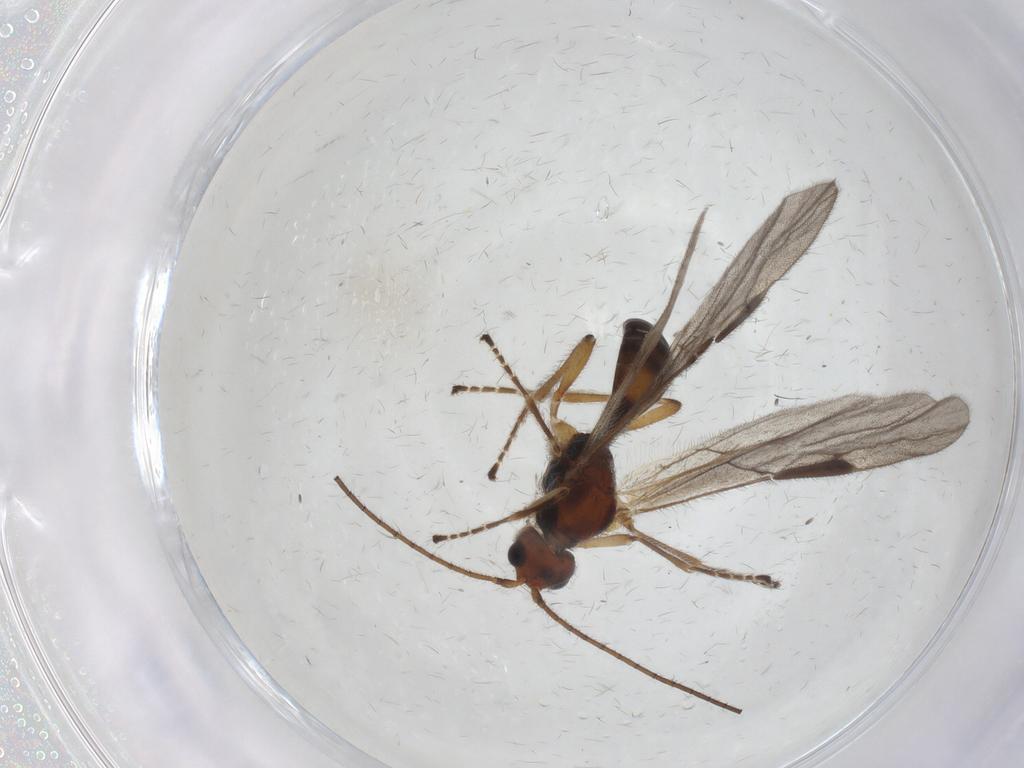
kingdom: Animalia
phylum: Arthropoda
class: Insecta
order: Hymenoptera
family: Braconidae
